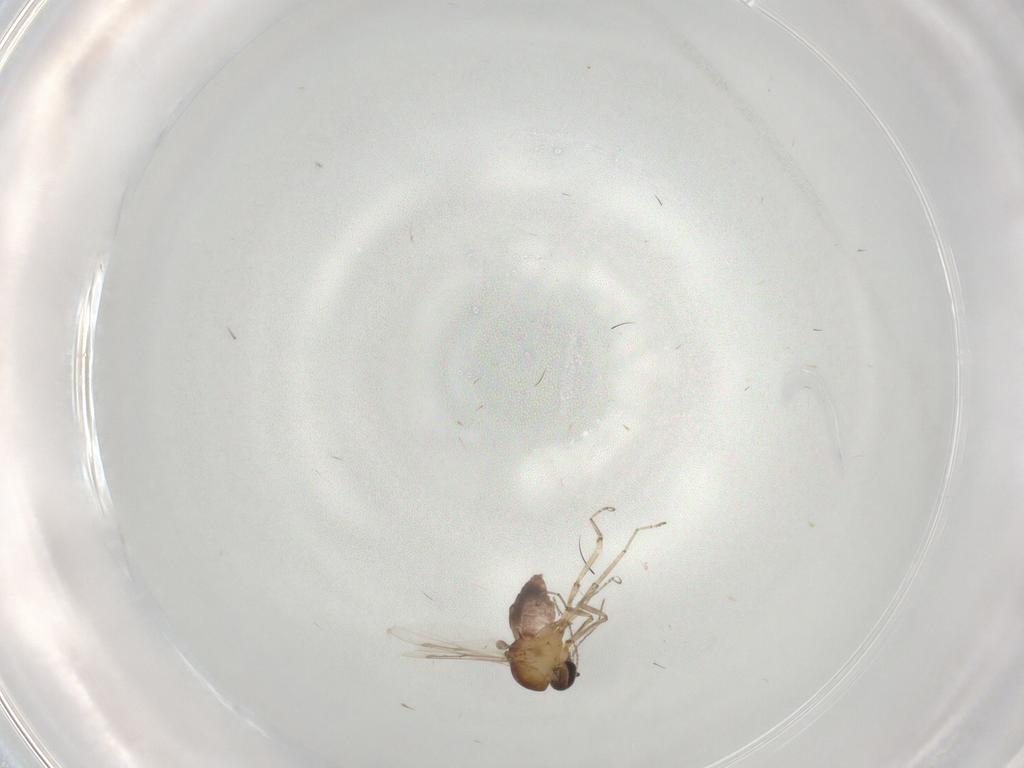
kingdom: Animalia
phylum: Arthropoda
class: Insecta
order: Diptera
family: Ceratopogonidae
